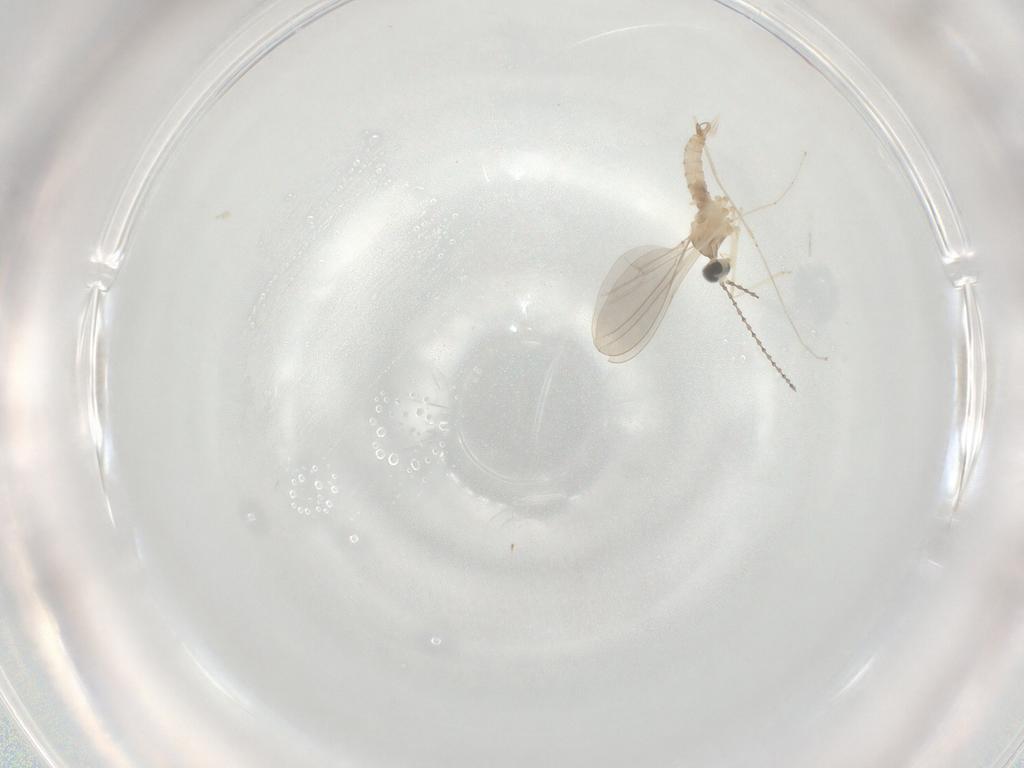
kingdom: Animalia
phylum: Arthropoda
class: Insecta
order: Diptera
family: Cecidomyiidae
